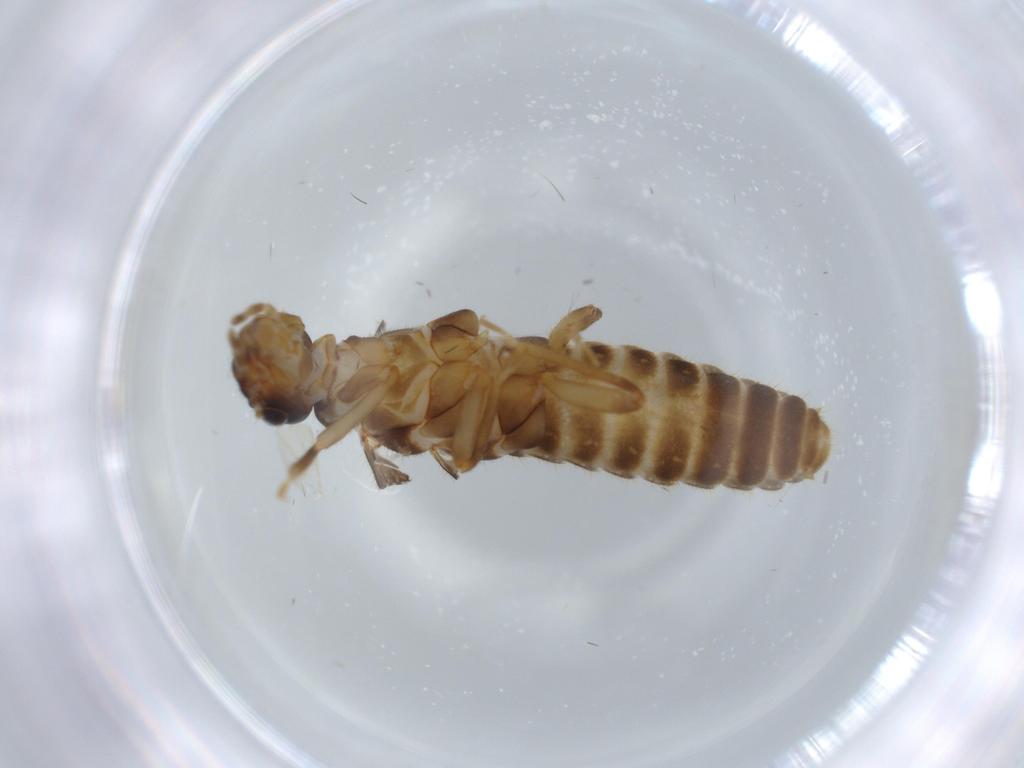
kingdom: Animalia
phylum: Arthropoda
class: Insecta
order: Blattodea
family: Termitidae
